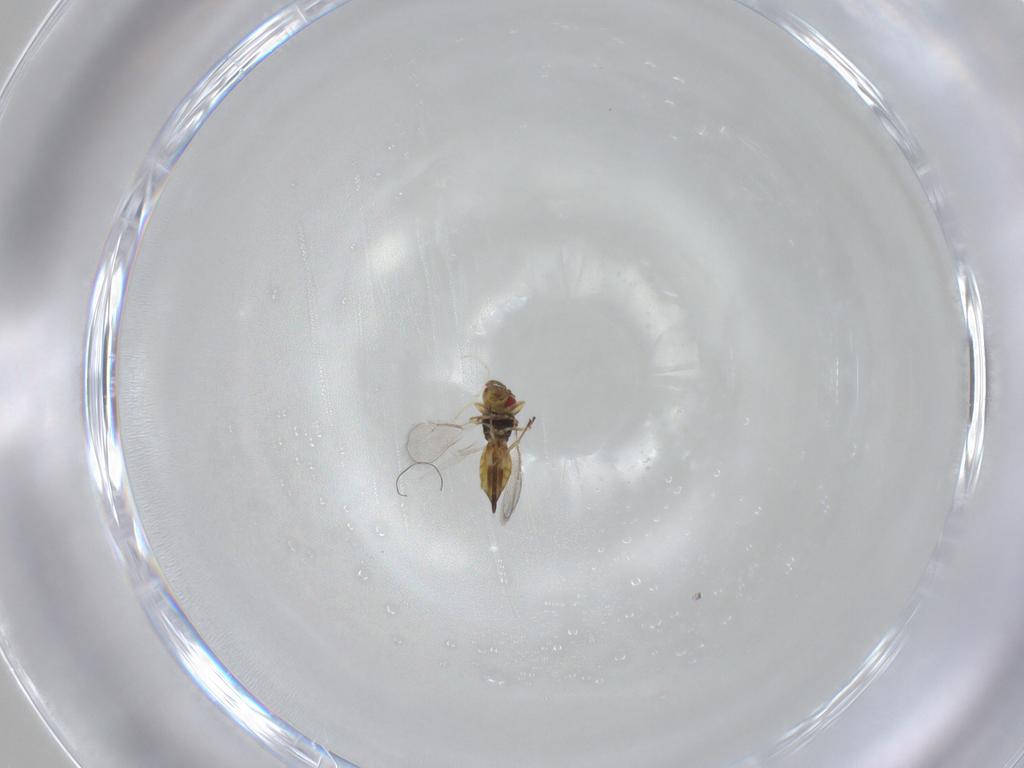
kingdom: Animalia
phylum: Arthropoda
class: Insecta
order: Hymenoptera
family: Eulophidae
